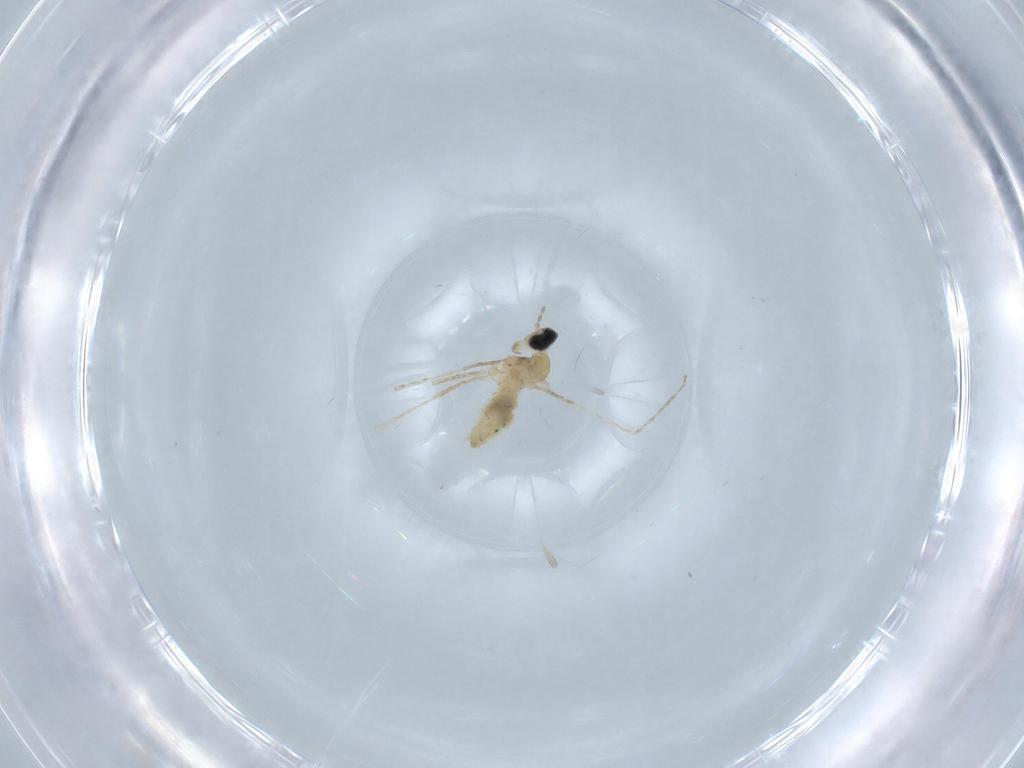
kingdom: Animalia
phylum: Arthropoda
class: Insecta
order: Diptera
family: Cecidomyiidae
